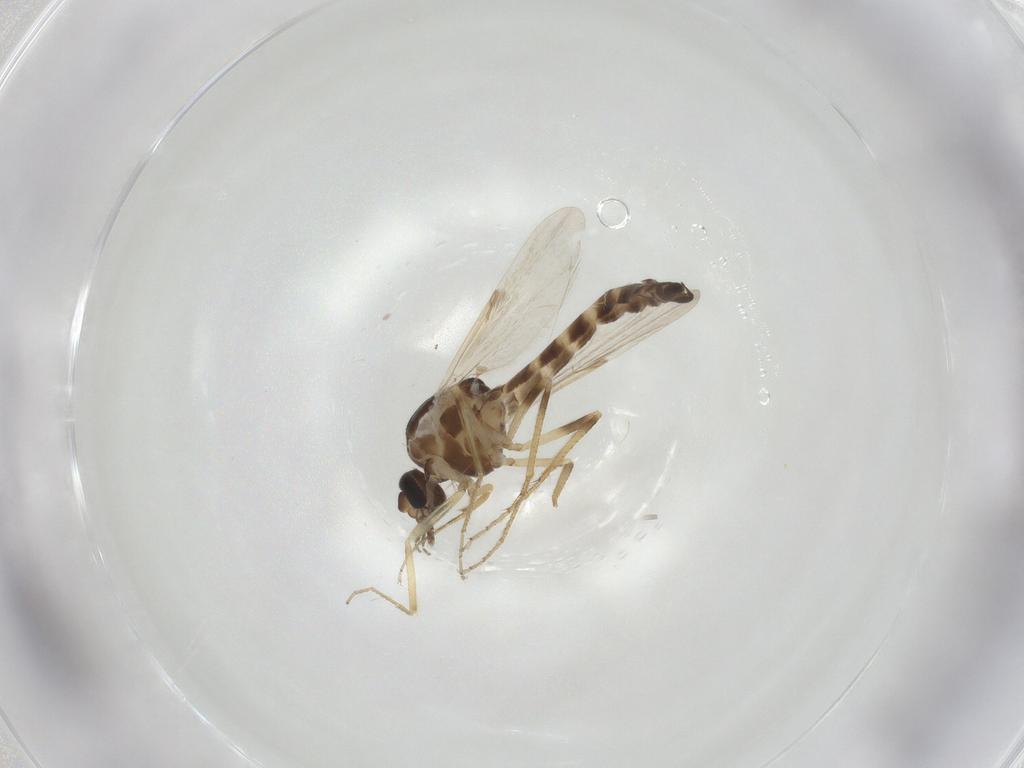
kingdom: Animalia
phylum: Arthropoda
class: Insecta
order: Diptera
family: Ceratopogonidae
